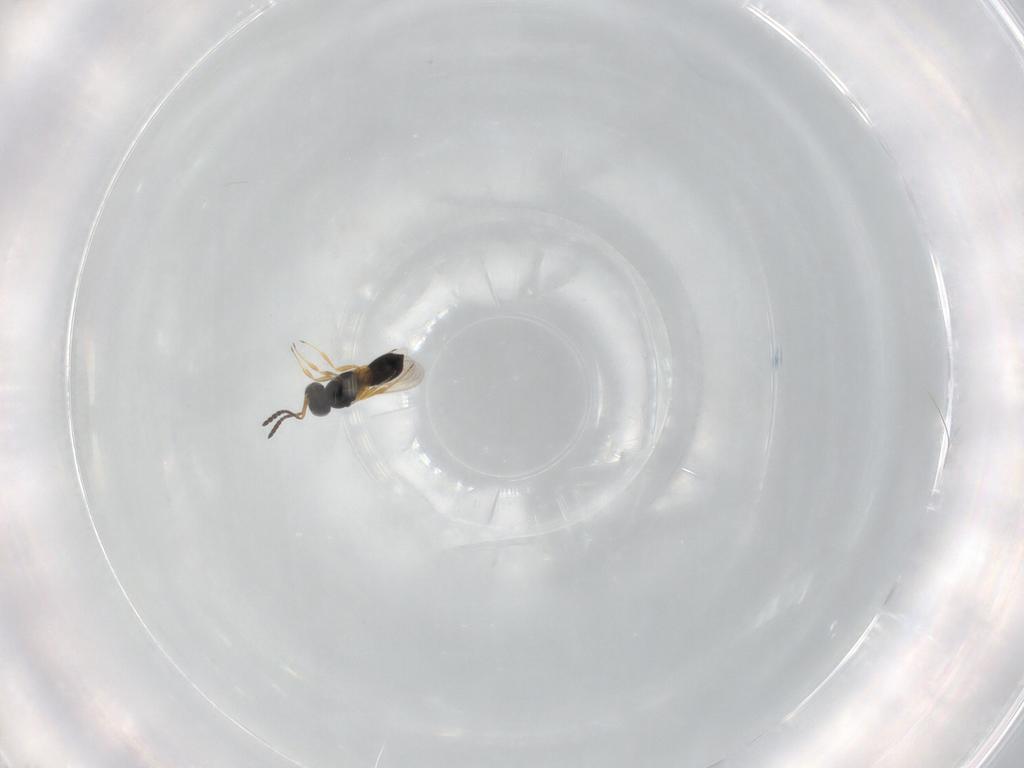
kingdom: Animalia
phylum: Arthropoda
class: Insecta
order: Hymenoptera
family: Scelionidae
